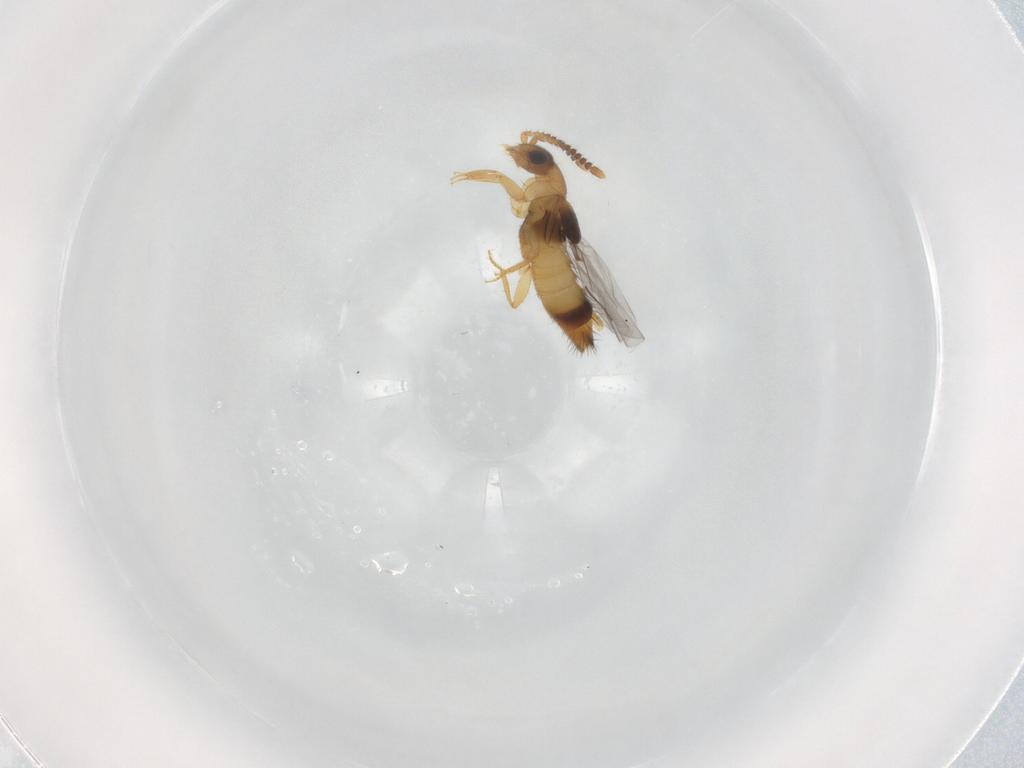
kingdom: Animalia
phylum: Arthropoda
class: Insecta
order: Coleoptera
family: Staphylinidae
